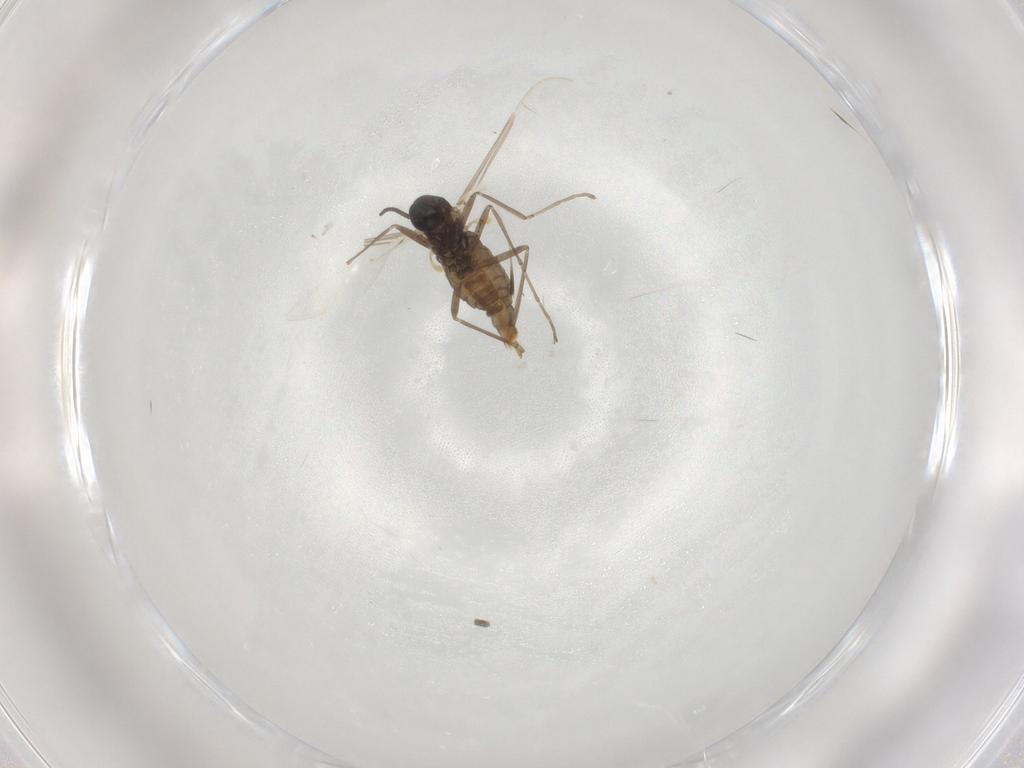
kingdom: Animalia
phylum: Arthropoda
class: Insecta
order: Diptera
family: Cecidomyiidae
